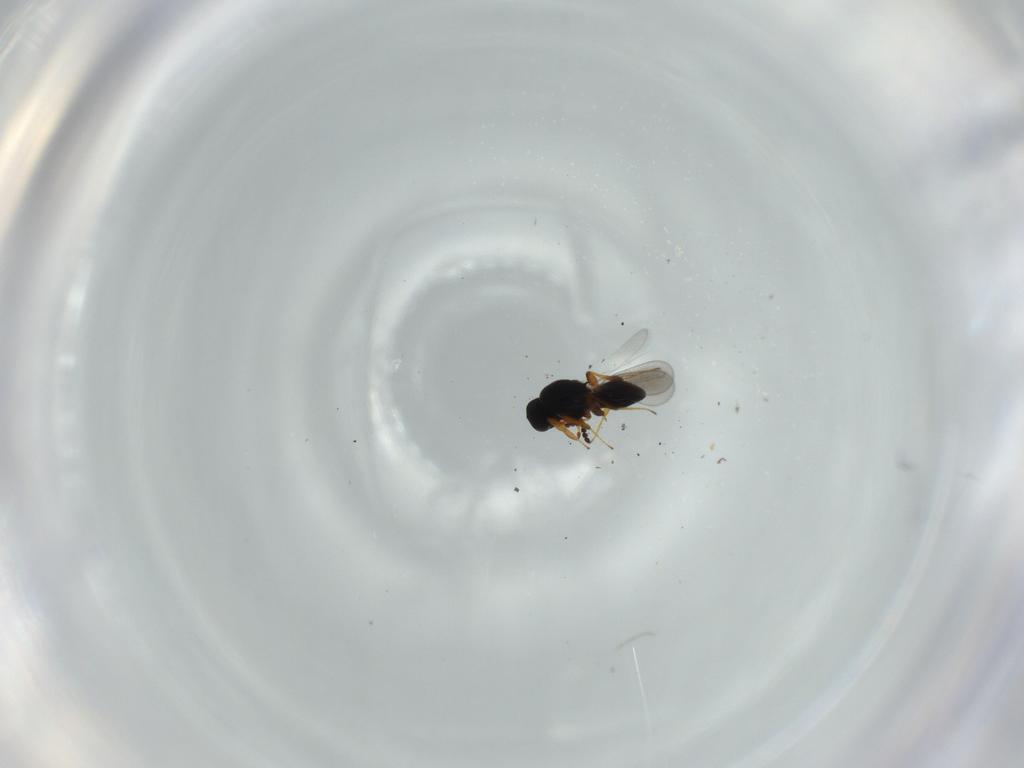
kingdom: Animalia
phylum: Arthropoda
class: Insecta
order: Hymenoptera
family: Platygastridae
